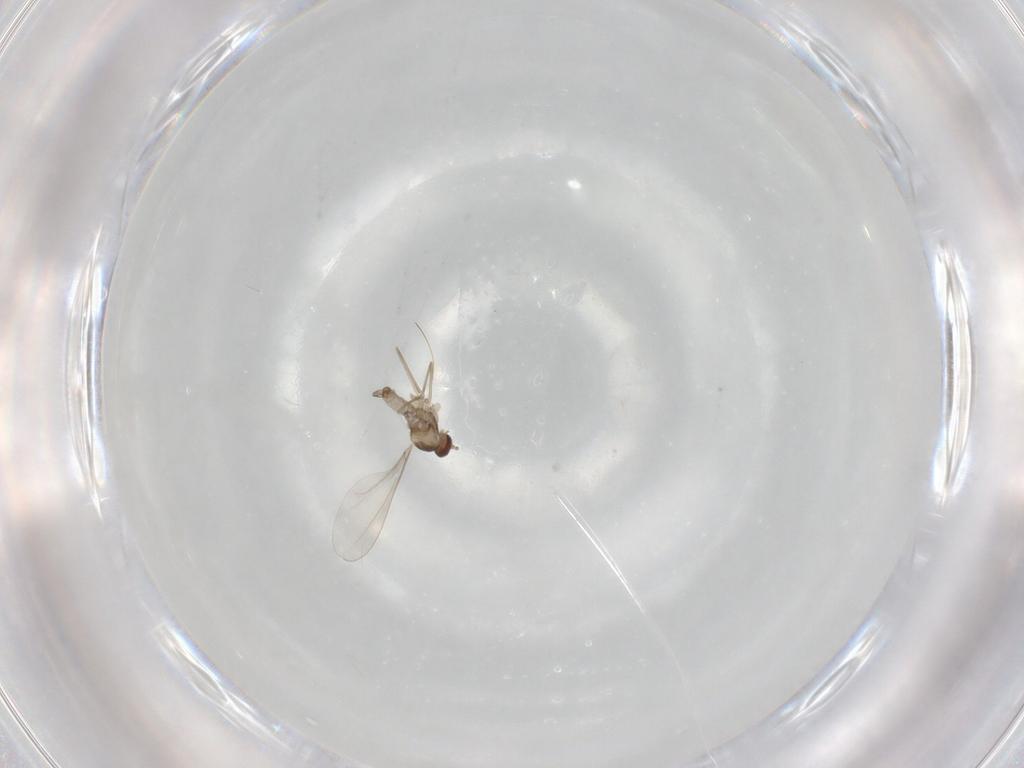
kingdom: Animalia
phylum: Arthropoda
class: Insecta
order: Diptera
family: Cecidomyiidae
